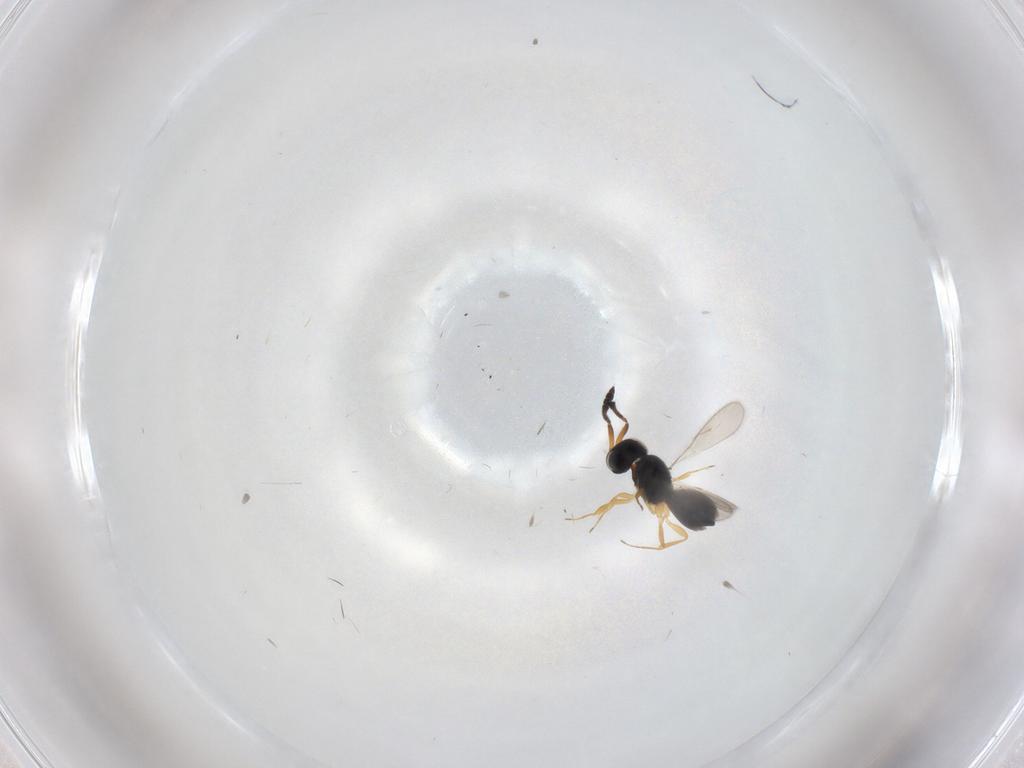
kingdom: Animalia
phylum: Arthropoda
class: Insecta
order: Hymenoptera
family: Scelionidae
